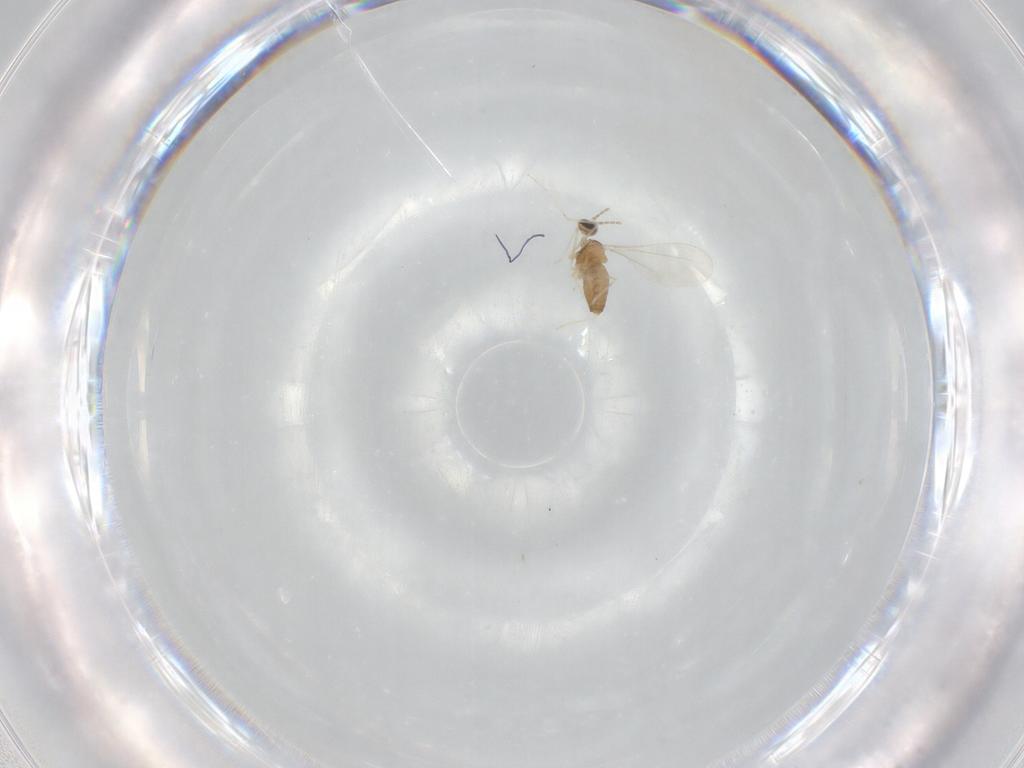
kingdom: Animalia
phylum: Arthropoda
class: Insecta
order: Diptera
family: Cecidomyiidae
